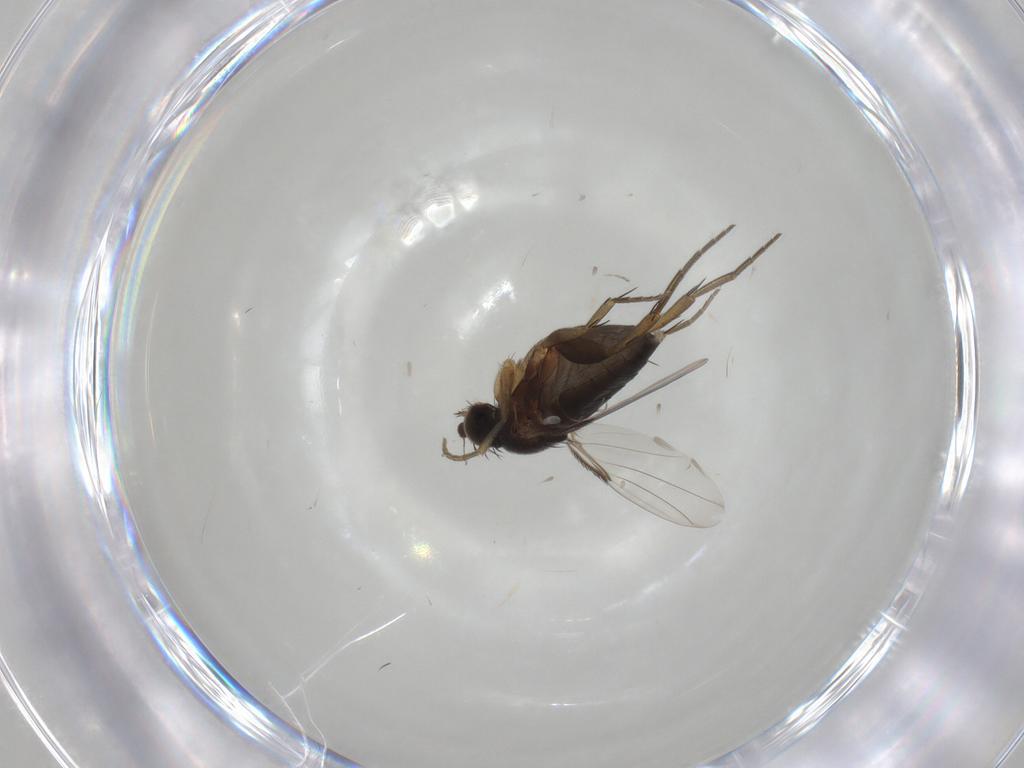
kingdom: Animalia
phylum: Arthropoda
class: Insecta
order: Diptera
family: Phoridae
